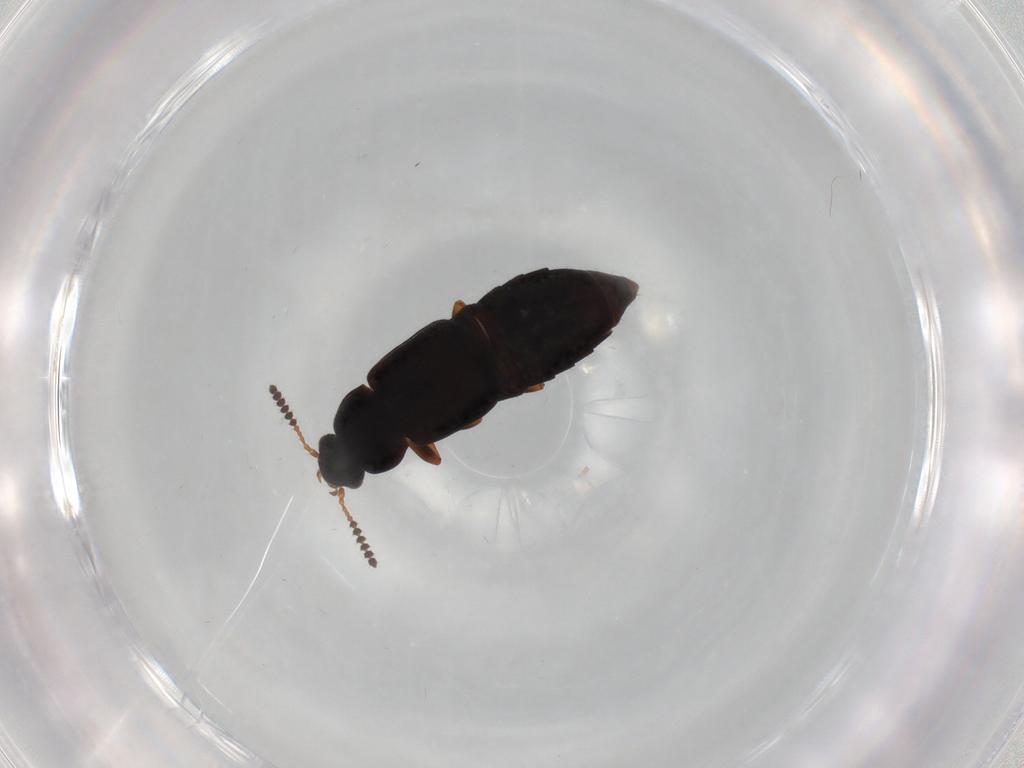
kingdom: Animalia
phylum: Arthropoda
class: Insecta
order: Coleoptera
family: Staphylinidae
